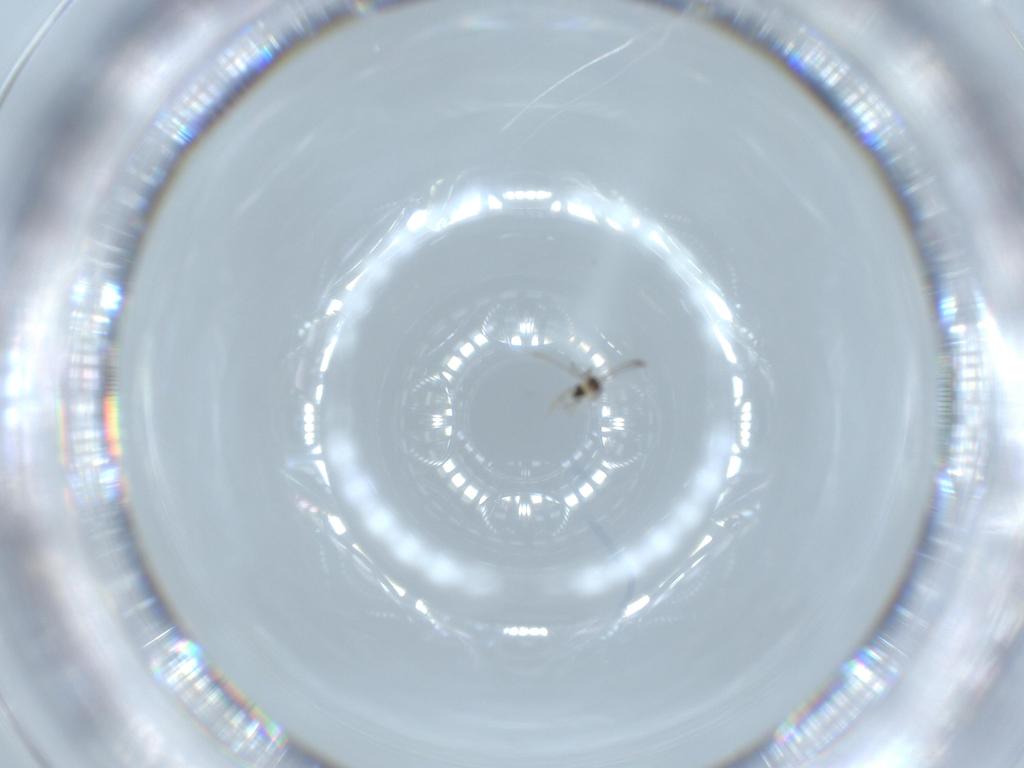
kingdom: Animalia
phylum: Arthropoda
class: Insecta
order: Hymenoptera
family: Mymaridae
